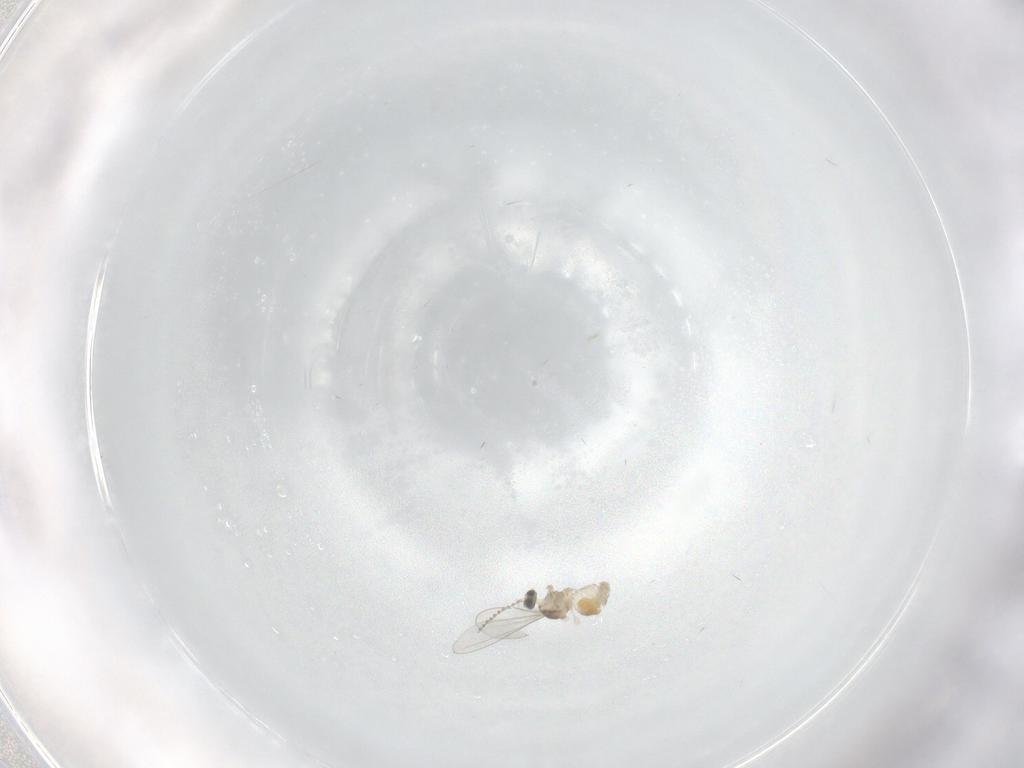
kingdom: Animalia
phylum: Arthropoda
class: Insecta
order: Diptera
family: Cecidomyiidae
